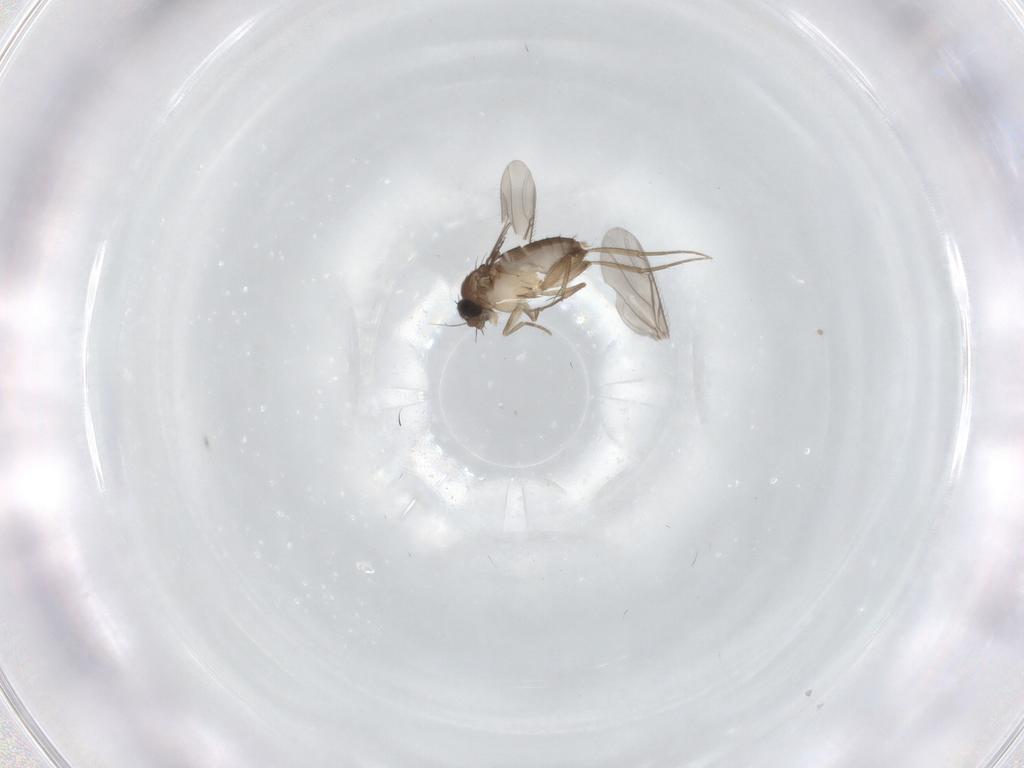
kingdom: Animalia
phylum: Arthropoda
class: Insecta
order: Diptera
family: Phoridae
